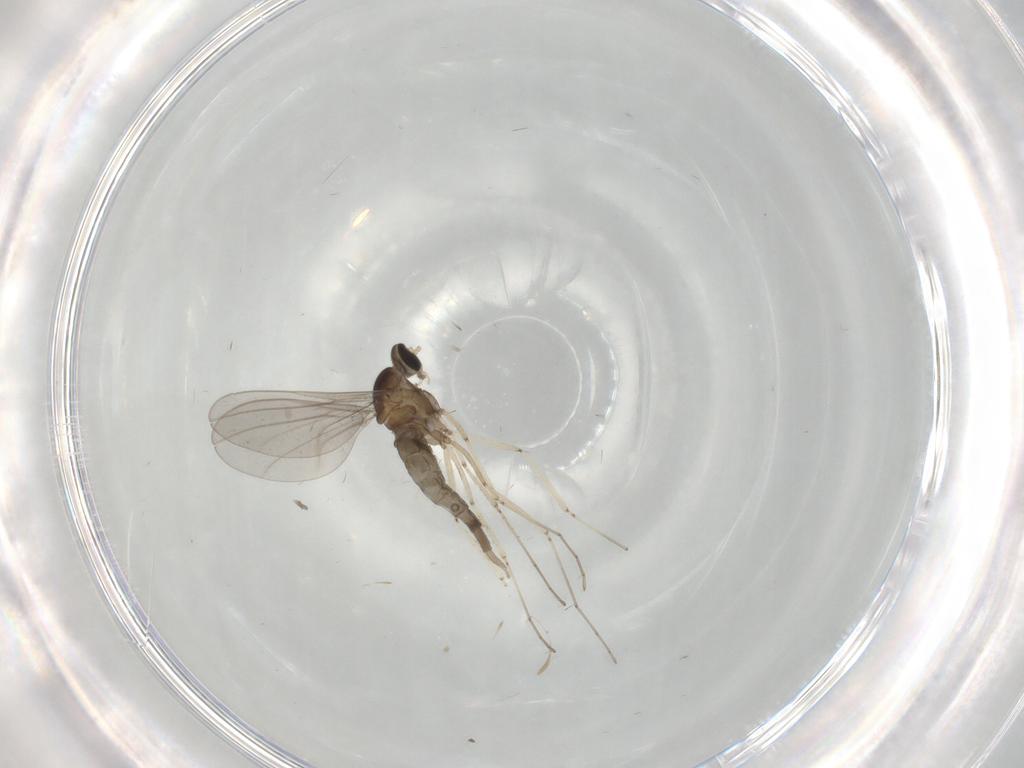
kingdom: Animalia
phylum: Arthropoda
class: Insecta
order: Diptera
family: Cecidomyiidae
